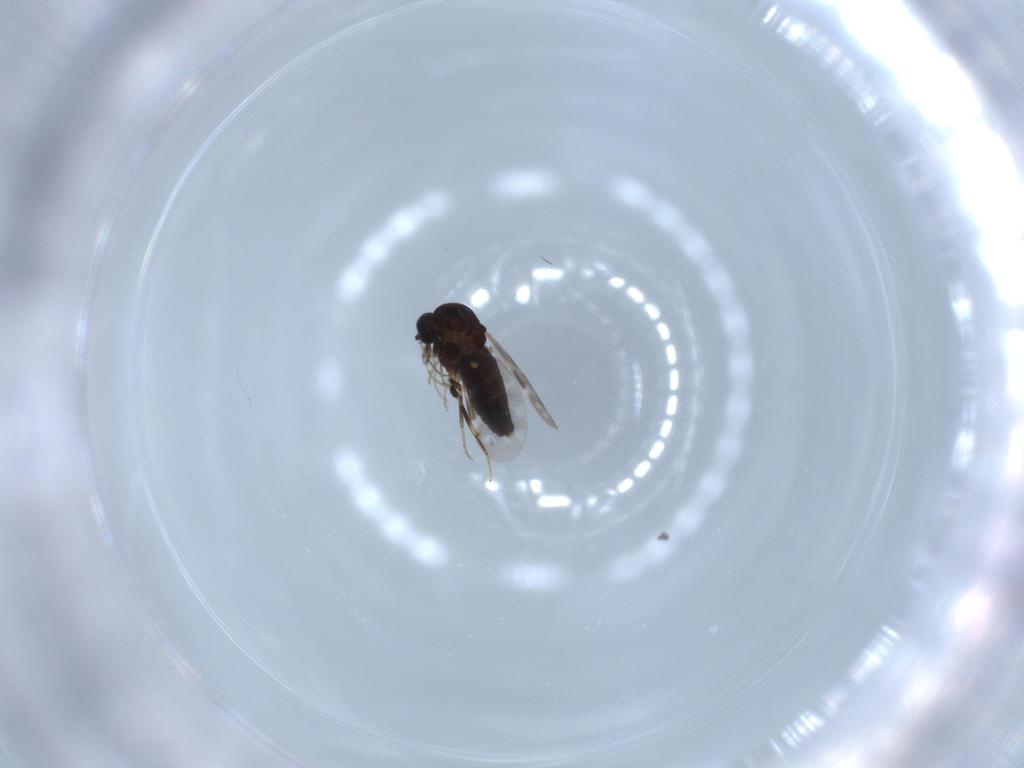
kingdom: Animalia
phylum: Arthropoda
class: Insecta
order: Diptera
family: Ceratopogonidae
